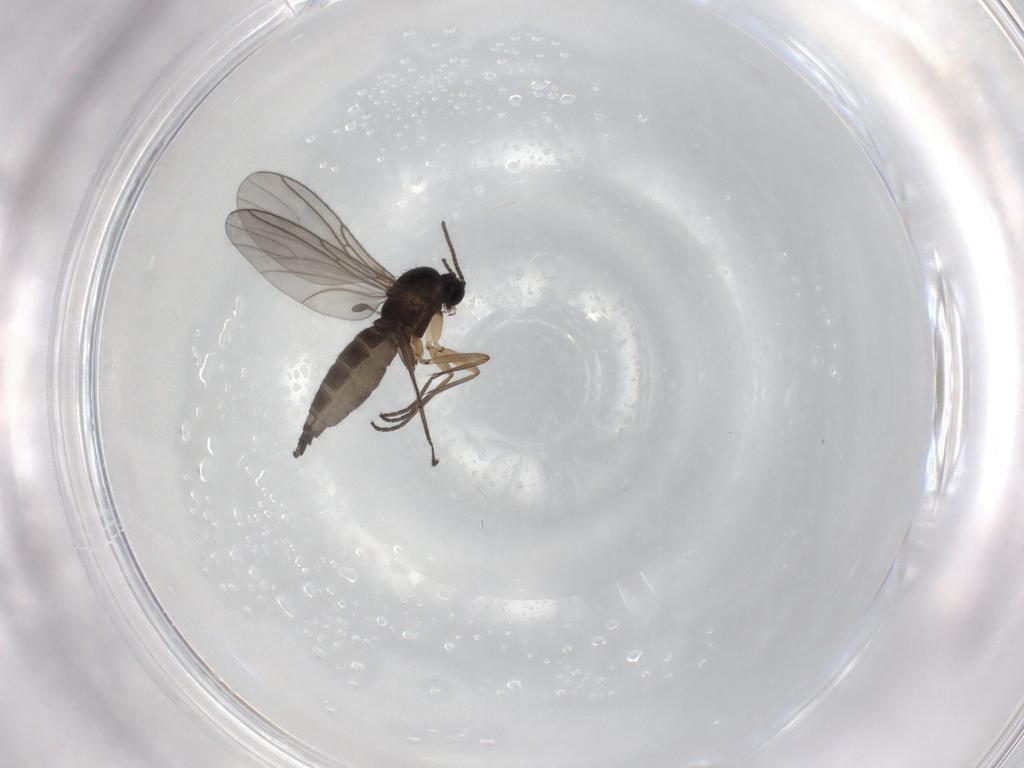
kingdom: Animalia
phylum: Arthropoda
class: Insecta
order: Diptera
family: Sciaridae
